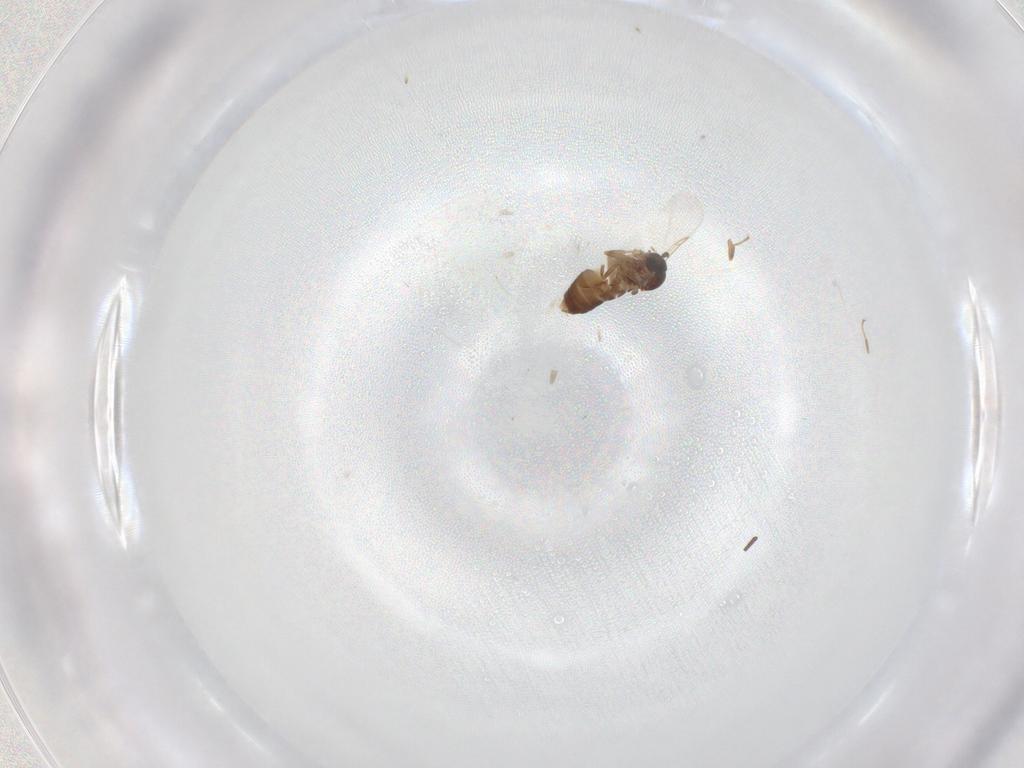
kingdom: Animalia
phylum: Arthropoda
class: Insecta
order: Diptera
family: Scatopsidae
